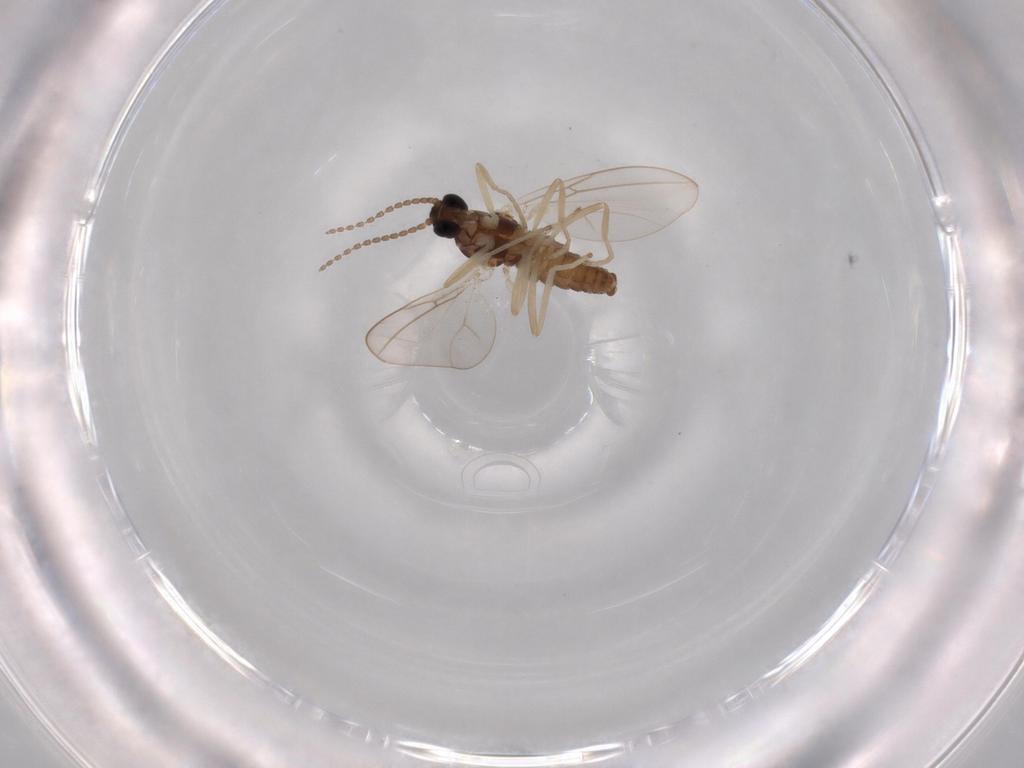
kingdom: Animalia
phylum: Arthropoda
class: Insecta
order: Diptera
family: Cecidomyiidae
